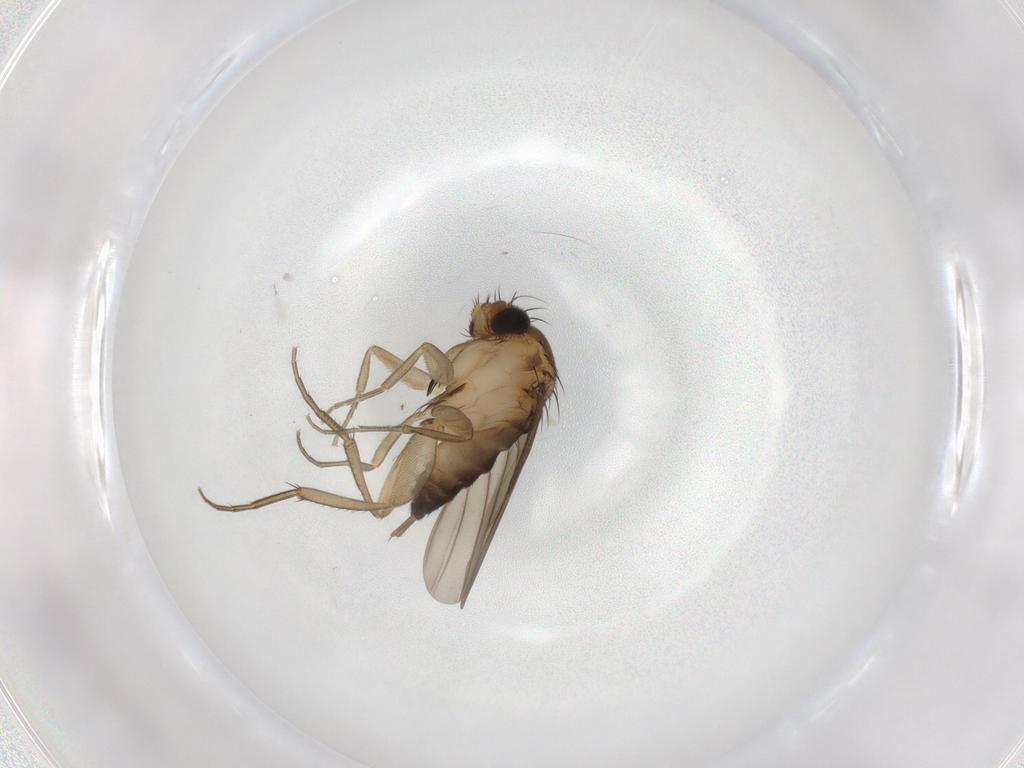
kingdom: Animalia
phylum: Arthropoda
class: Insecta
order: Diptera
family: Phoridae
